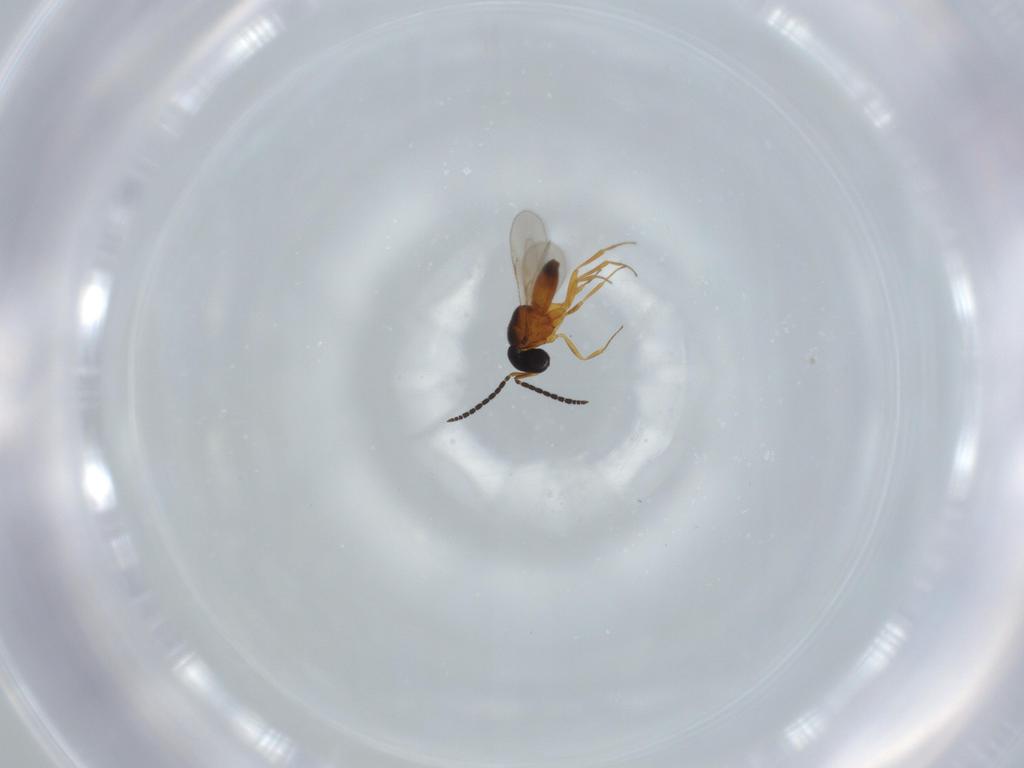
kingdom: Animalia
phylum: Arthropoda
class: Insecta
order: Hymenoptera
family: Scelionidae
